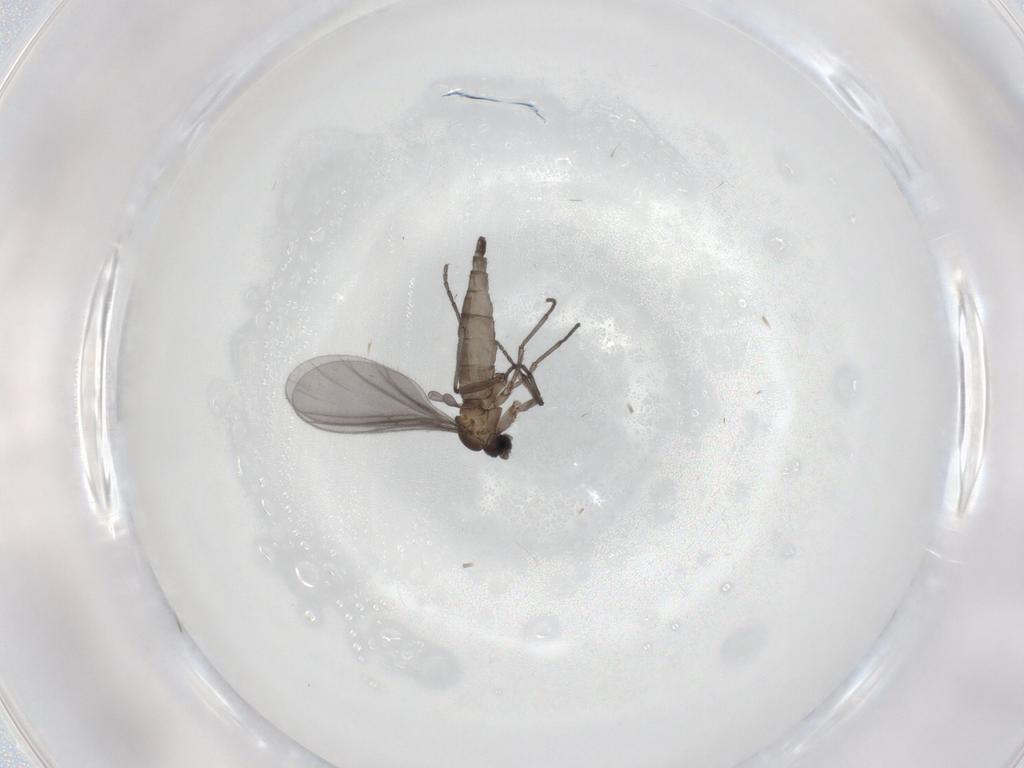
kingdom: Animalia
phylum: Arthropoda
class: Insecta
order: Diptera
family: Sciaridae
